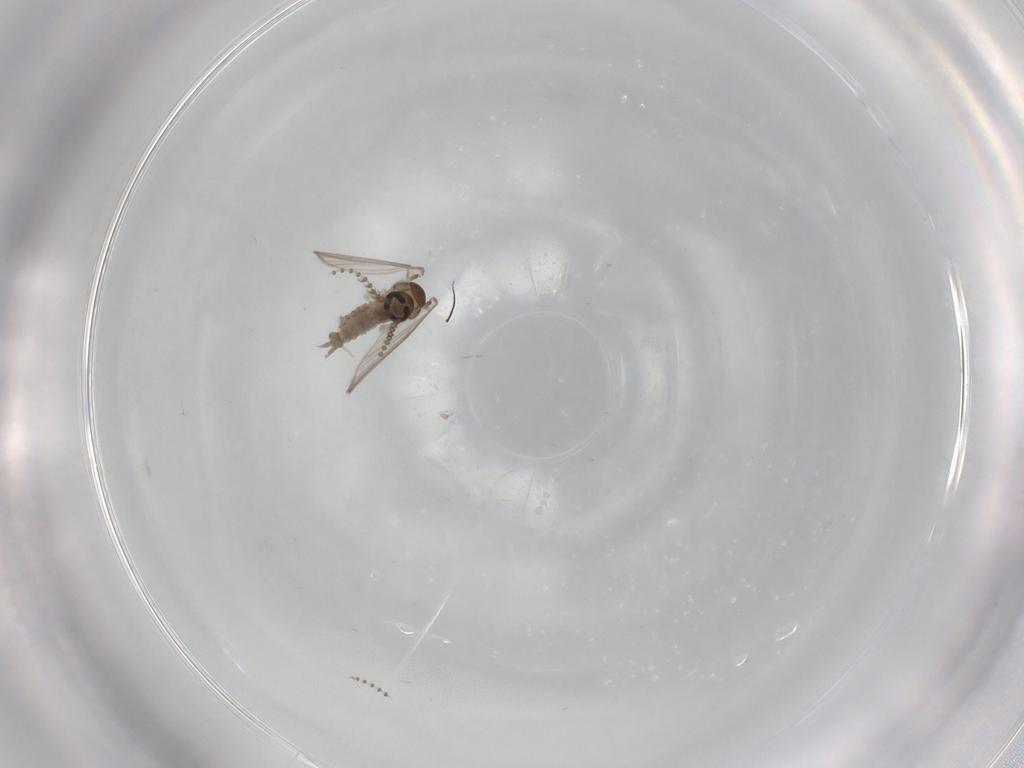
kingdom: Animalia
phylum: Arthropoda
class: Insecta
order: Diptera
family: Psychodidae
